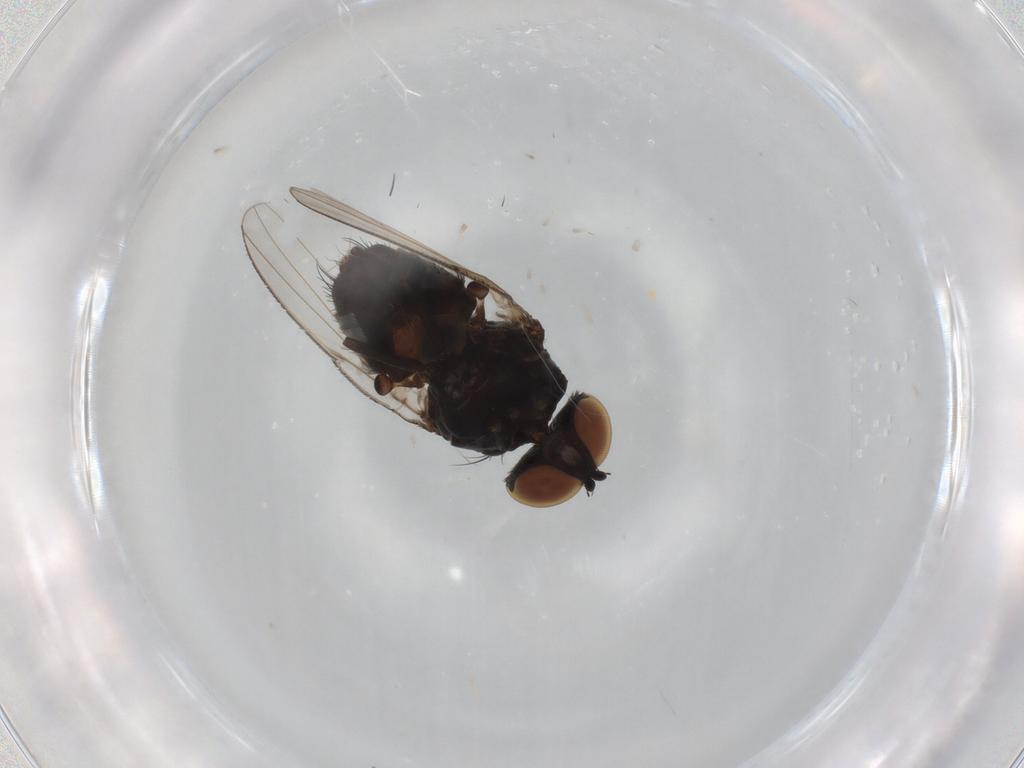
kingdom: Animalia
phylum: Arthropoda
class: Insecta
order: Diptera
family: Milichiidae
